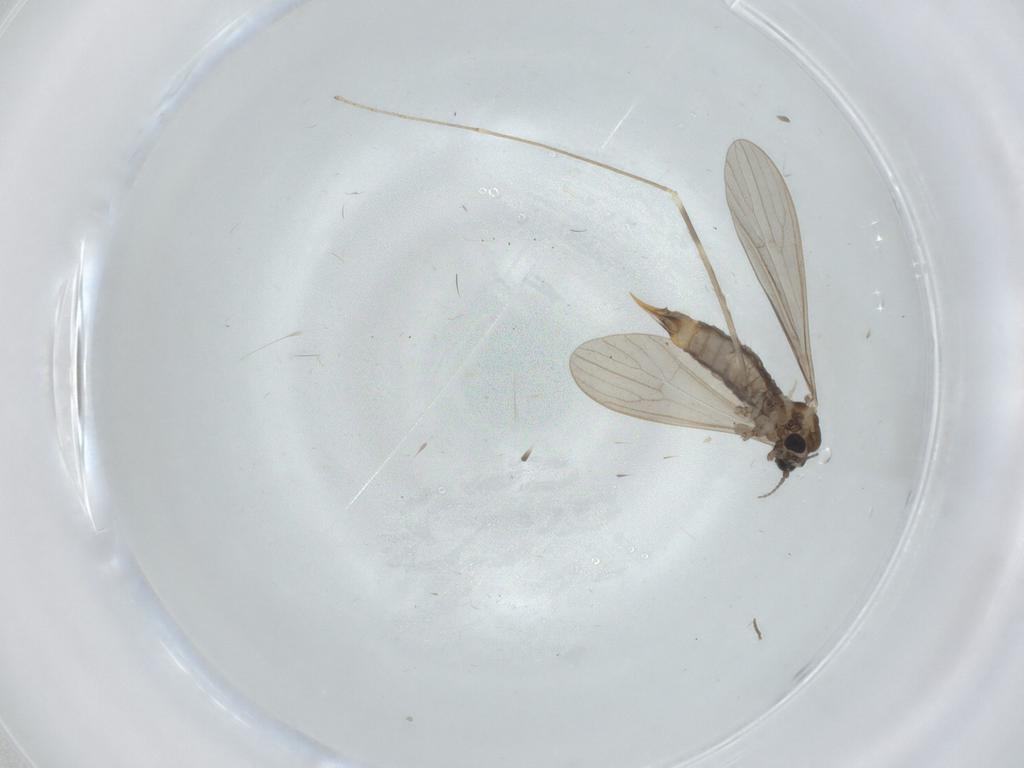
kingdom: Animalia
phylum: Arthropoda
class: Insecta
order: Diptera
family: Limoniidae
